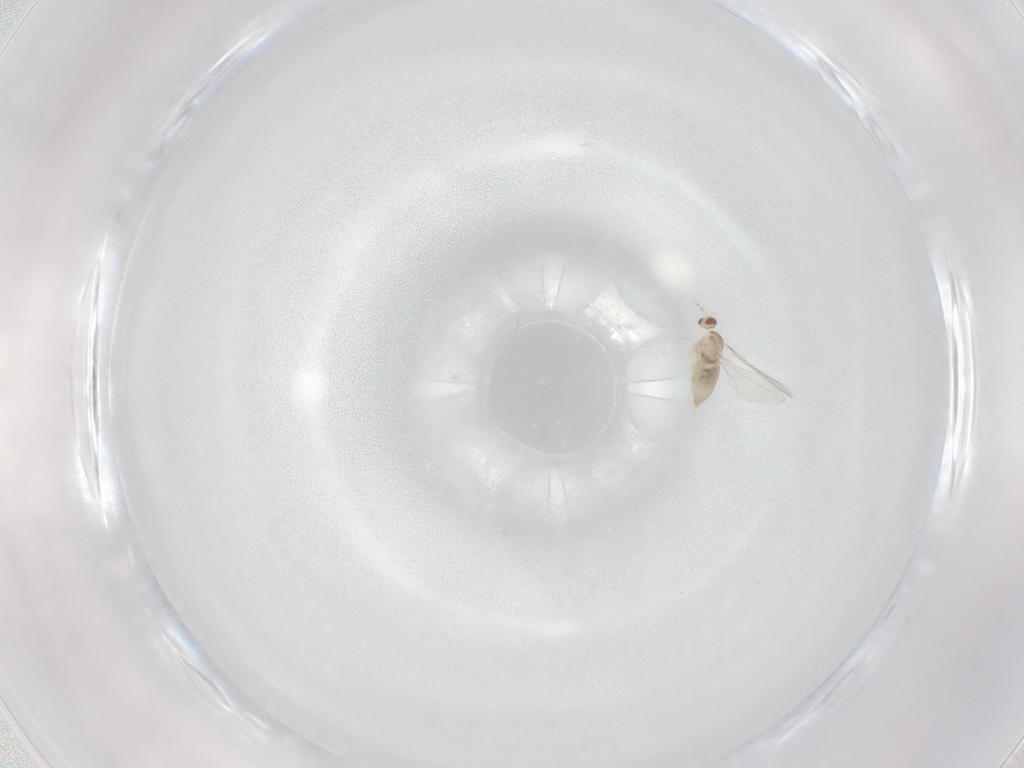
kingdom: Animalia
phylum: Arthropoda
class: Insecta
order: Diptera
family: Cecidomyiidae
